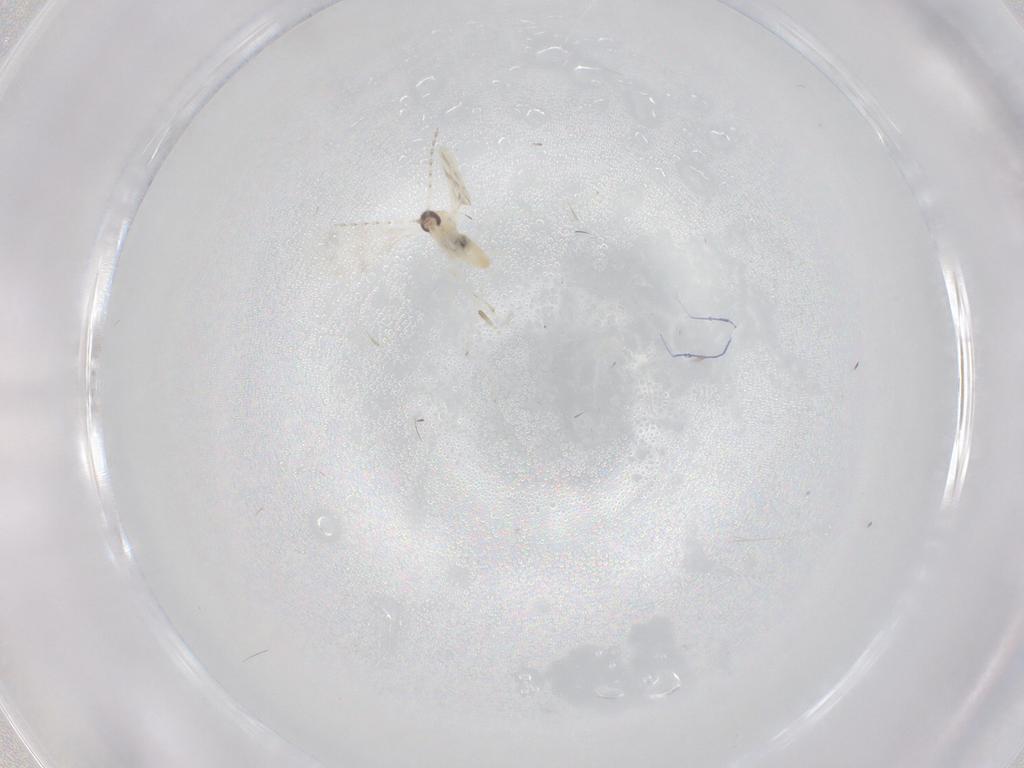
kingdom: Animalia
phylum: Arthropoda
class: Insecta
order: Diptera
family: Cecidomyiidae
